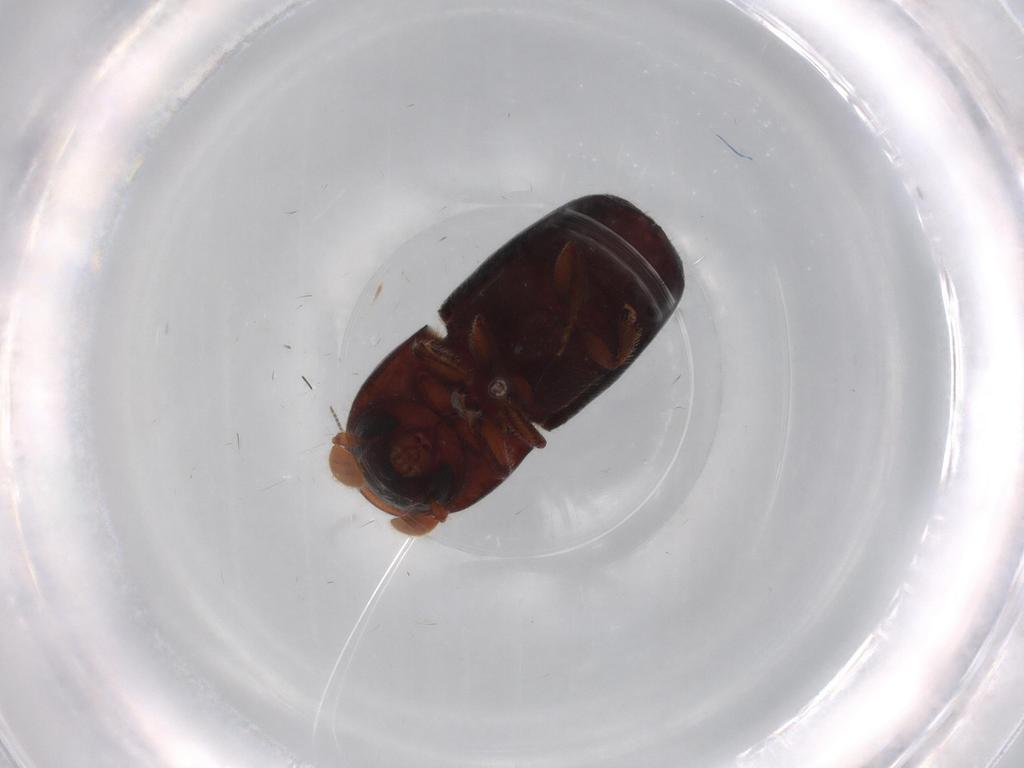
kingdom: Animalia
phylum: Arthropoda
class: Insecta
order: Coleoptera
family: Curculionidae
